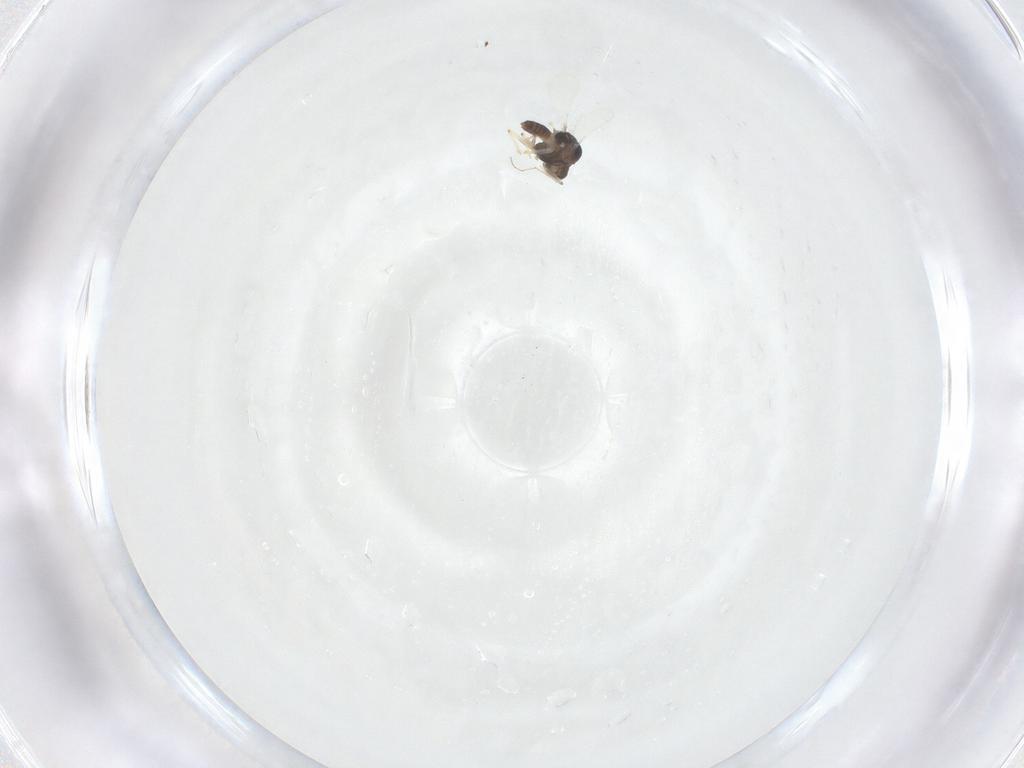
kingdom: Animalia
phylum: Arthropoda
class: Insecta
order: Diptera
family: Chironomidae
